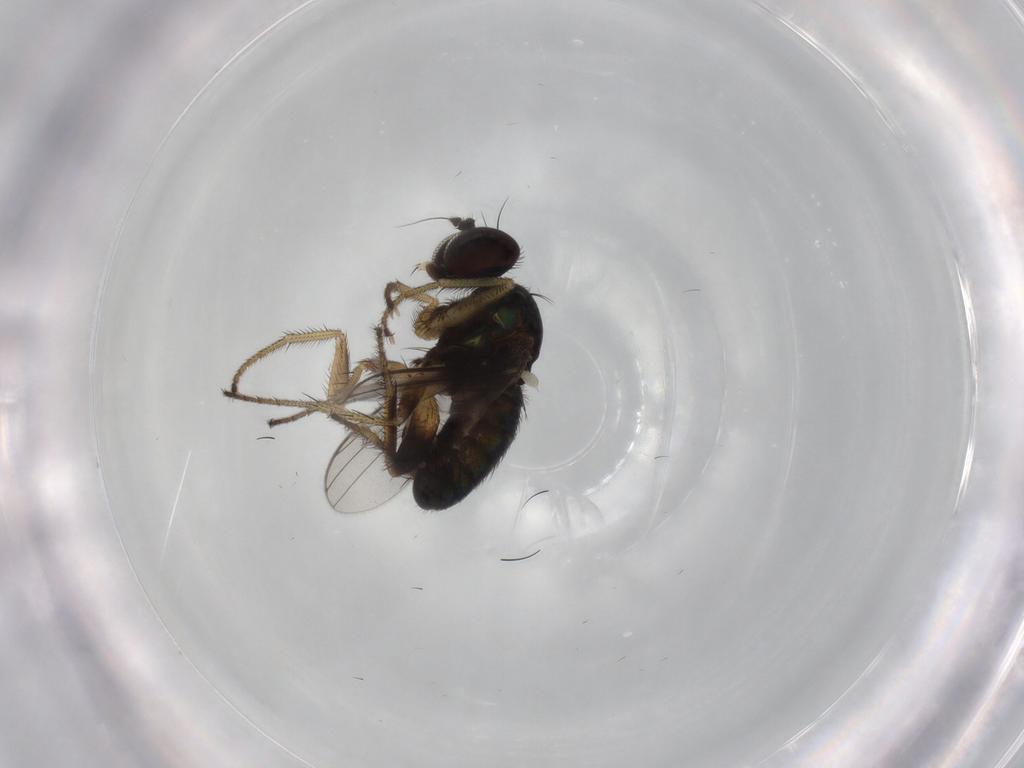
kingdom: Animalia
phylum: Arthropoda
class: Insecta
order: Diptera
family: Dolichopodidae
